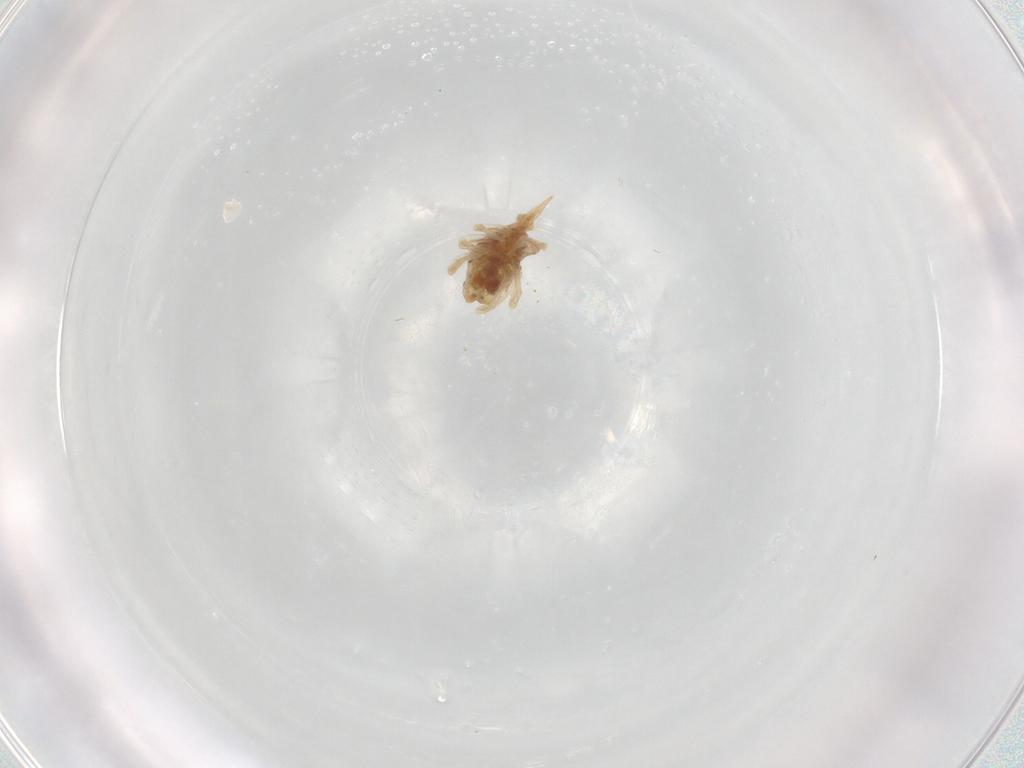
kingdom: Animalia
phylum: Arthropoda
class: Arachnida
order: Trombidiformes
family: Bdellidae
